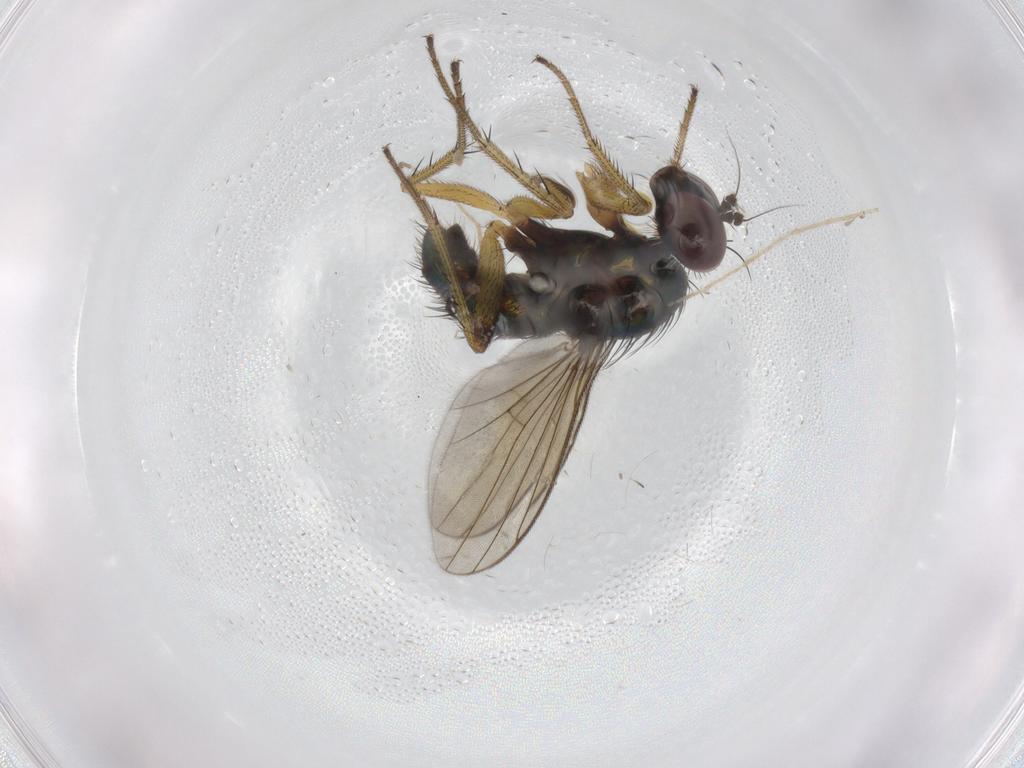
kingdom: Animalia
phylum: Arthropoda
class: Insecta
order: Diptera
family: Dolichopodidae
